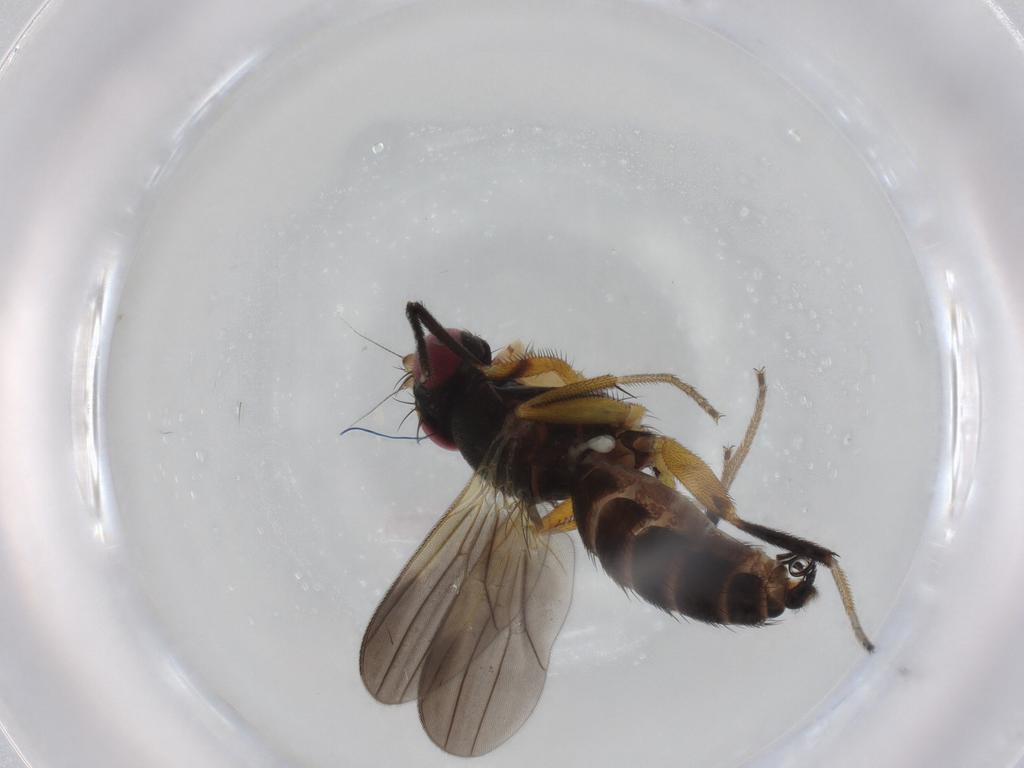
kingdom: Animalia
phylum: Arthropoda
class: Insecta
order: Diptera
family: Clusiidae
